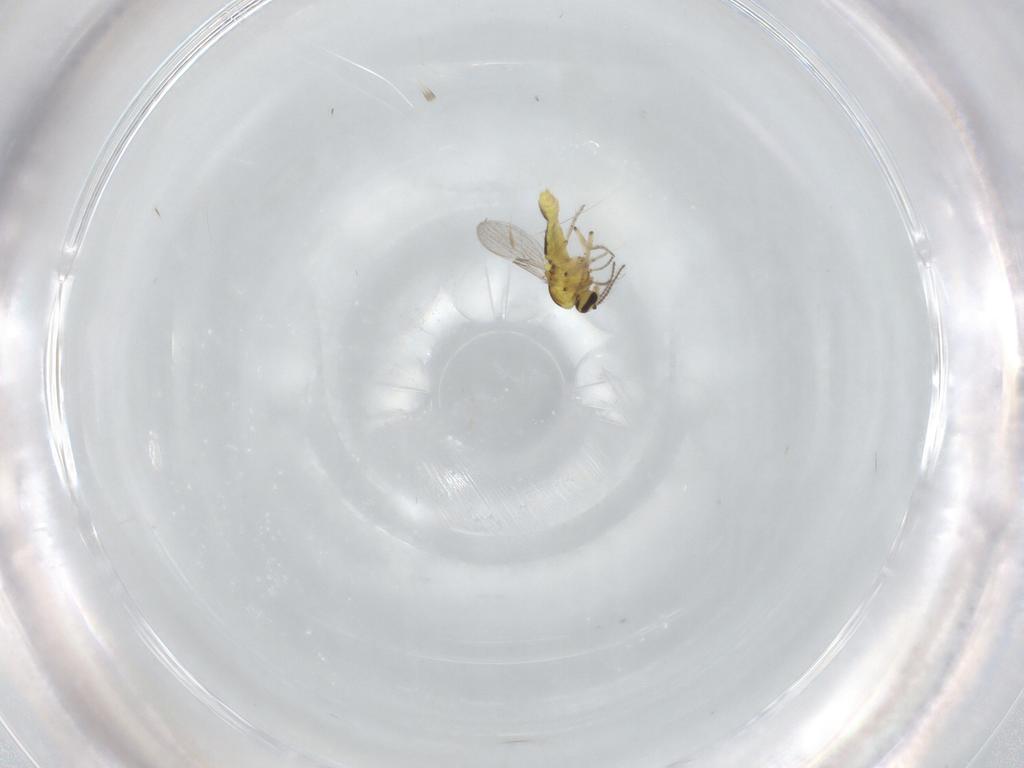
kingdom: Animalia
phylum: Arthropoda
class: Insecta
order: Diptera
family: Ceratopogonidae
